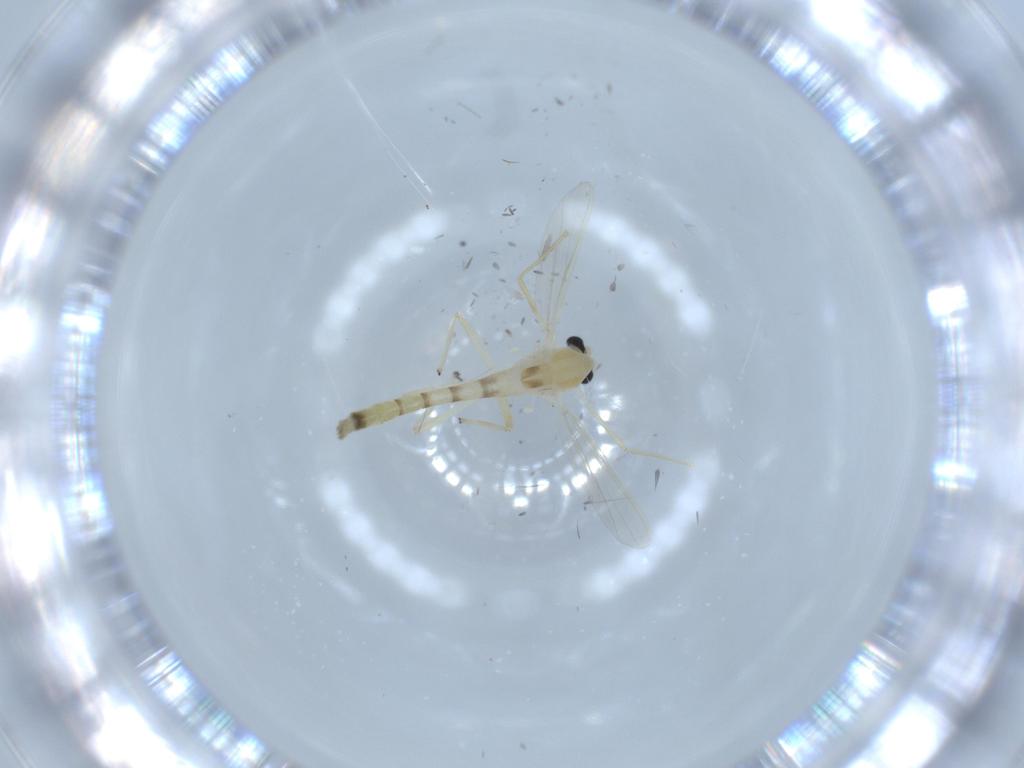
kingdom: Animalia
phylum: Arthropoda
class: Insecta
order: Diptera
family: Chironomidae
